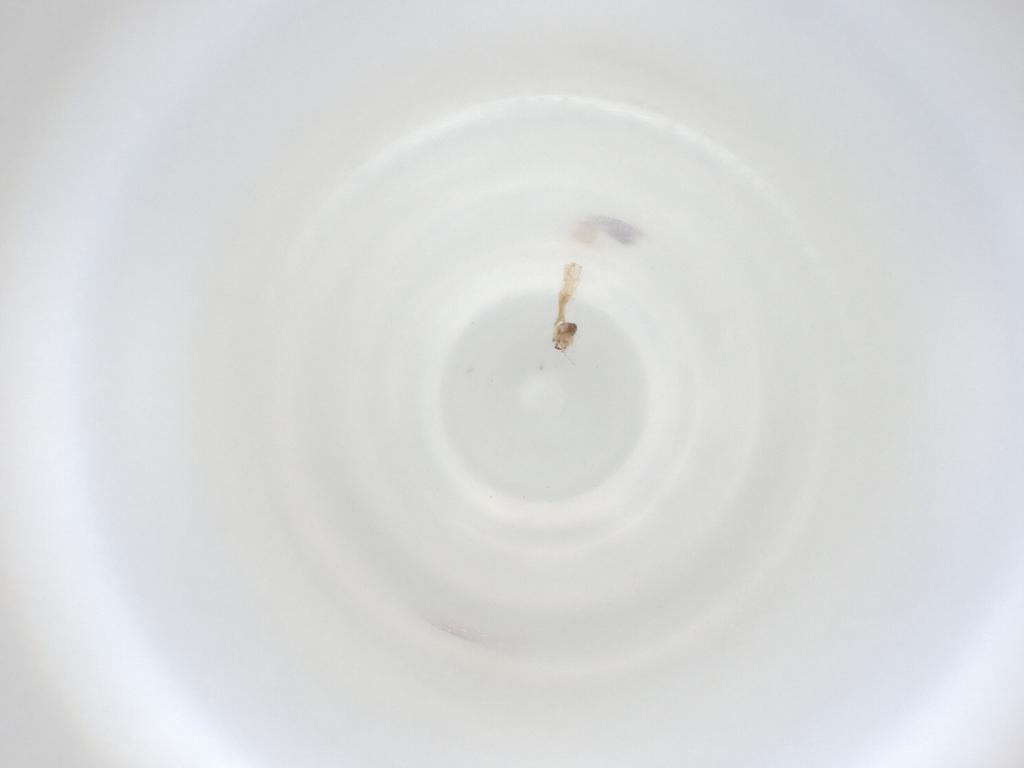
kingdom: Animalia
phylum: Arthropoda
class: Insecta
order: Diptera
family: Cecidomyiidae
